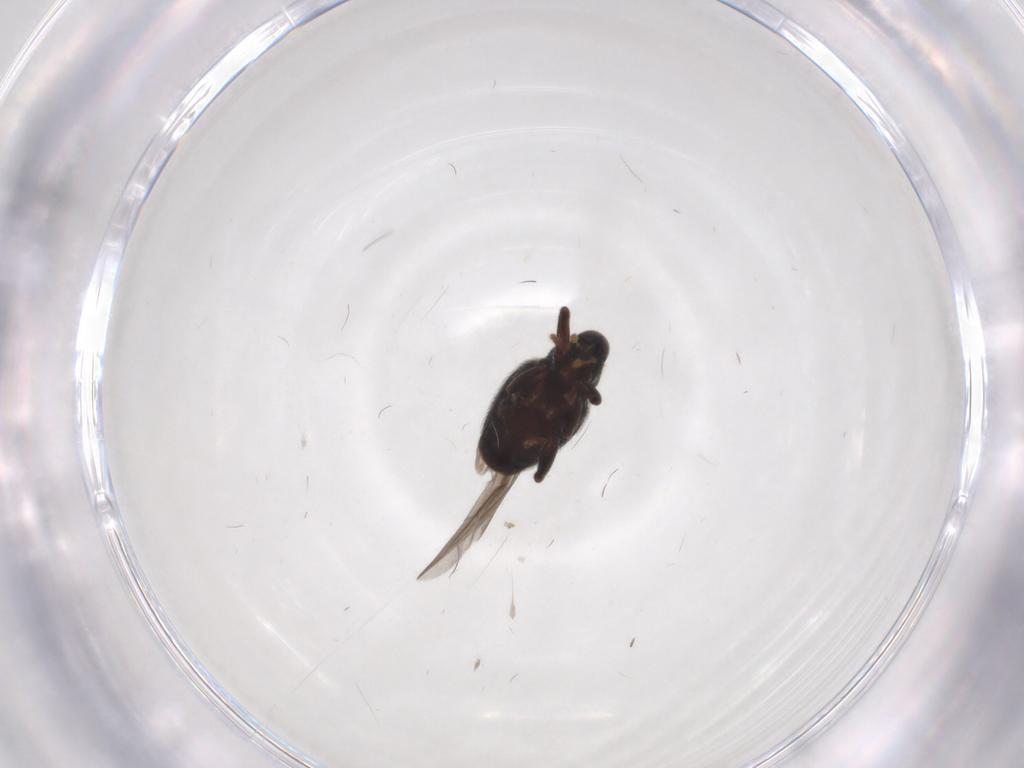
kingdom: Animalia
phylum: Arthropoda
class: Insecta
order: Coleoptera
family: Curculionidae
